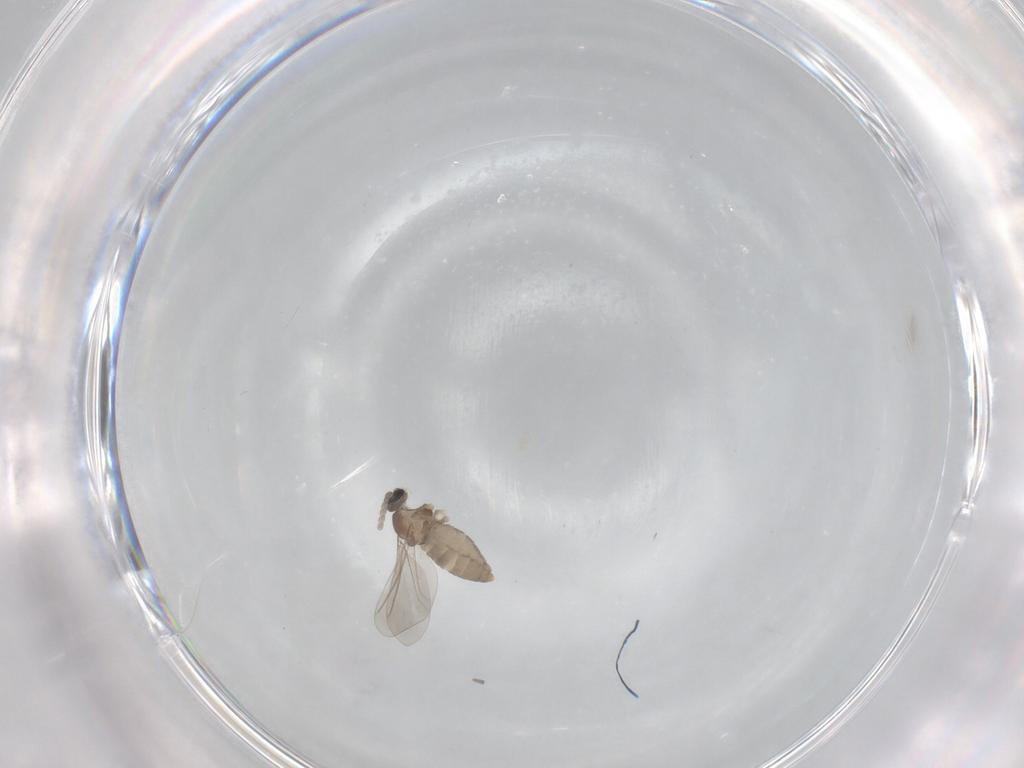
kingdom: Animalia
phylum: Arthropoda
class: Insecta
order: Diptera
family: Cecidomyiidae
